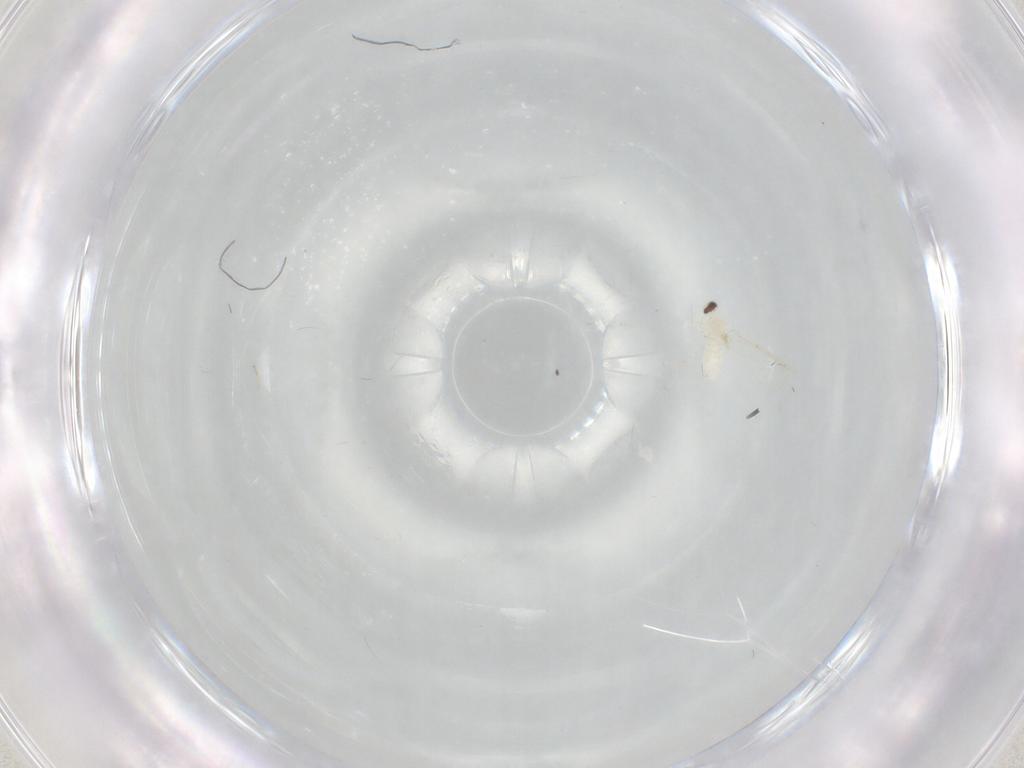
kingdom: Animalia
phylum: Arthropoda
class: Insecta
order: Diptera
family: Cecidomyiidae
